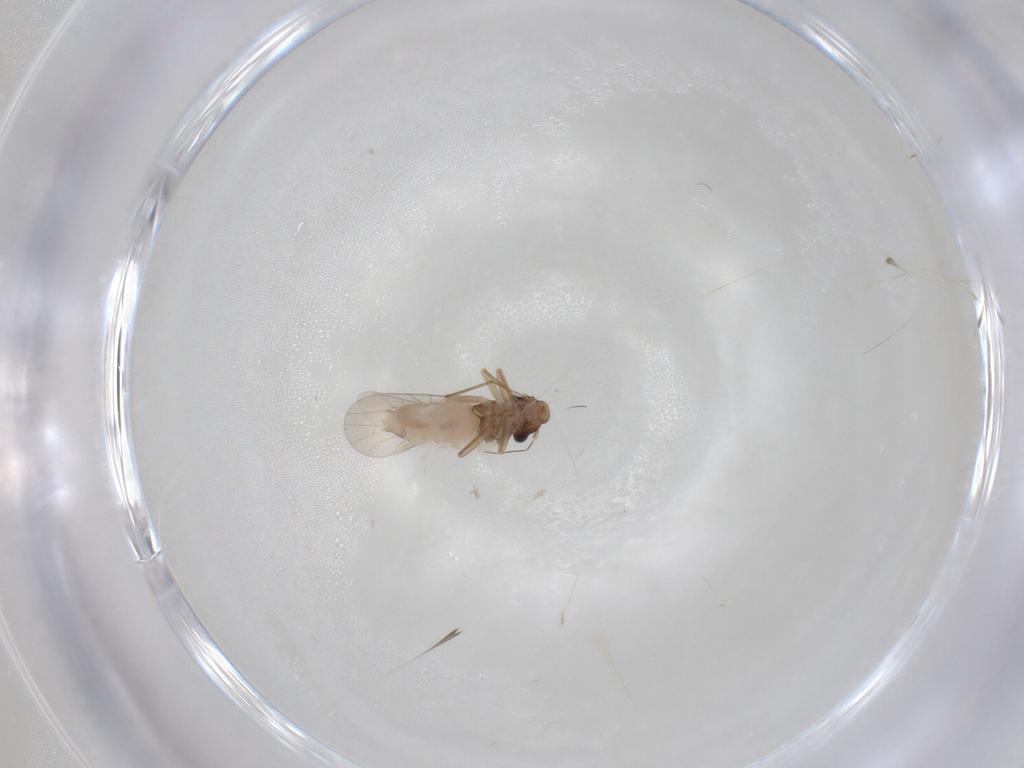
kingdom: Animalia
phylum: Arthropoda
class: Insecta
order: Psocodea
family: Lepidopsocidae
